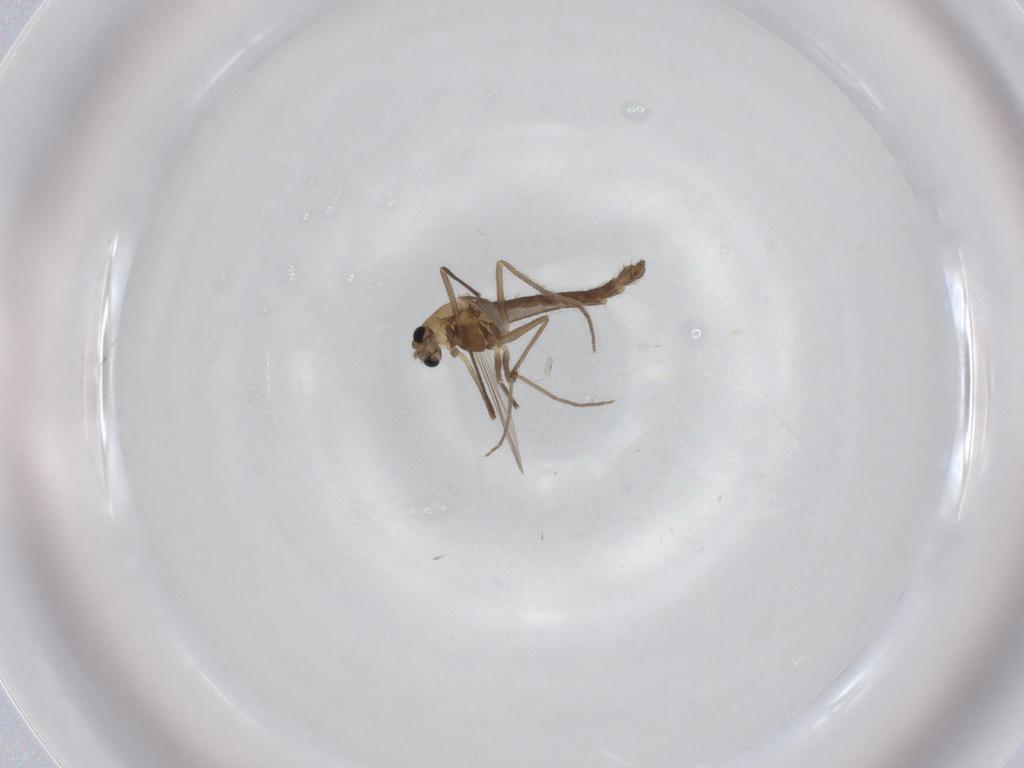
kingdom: Animalia
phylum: Arthropoda
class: Insecta
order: Diptera
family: Chironomidae
